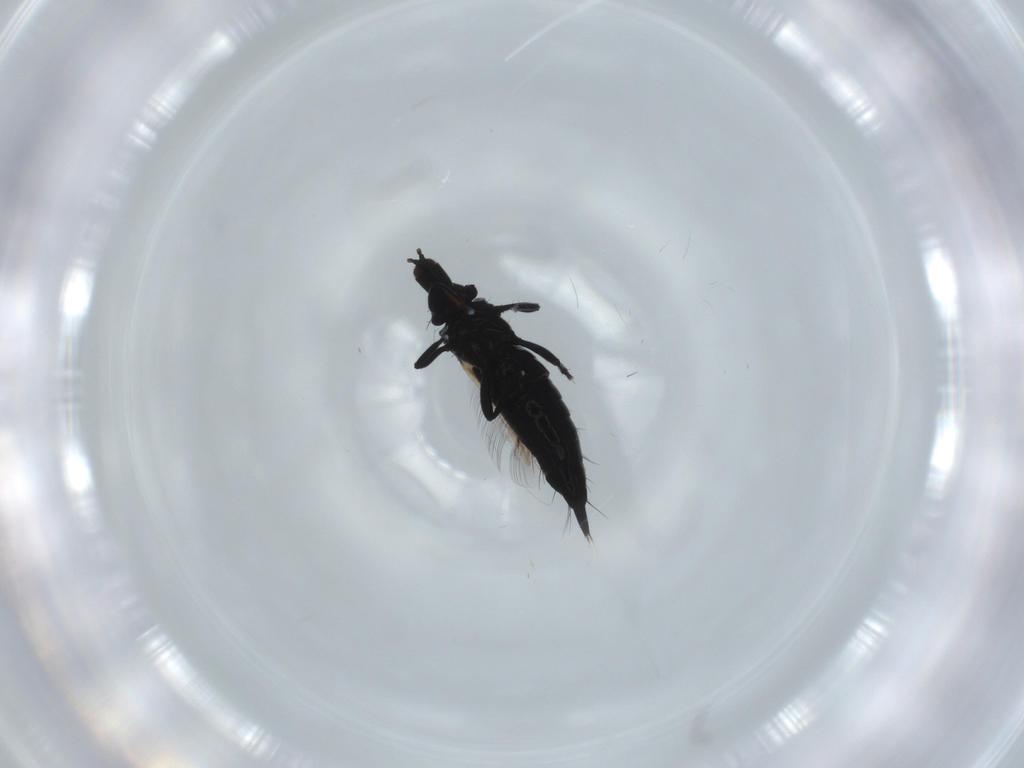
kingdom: Animalia
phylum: Arthropoda
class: Insecta
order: Thysanoptera
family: Phlaeothripidae
